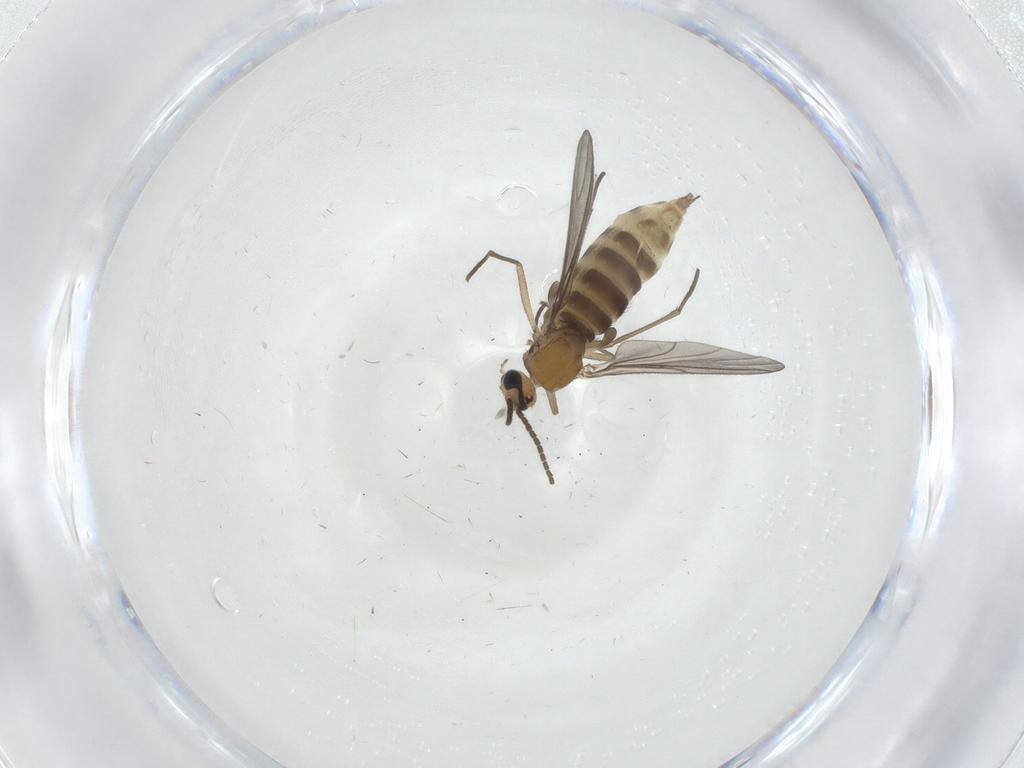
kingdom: Animalia
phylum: Arthropoda
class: Insecta
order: Diptera
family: Sciaridae
